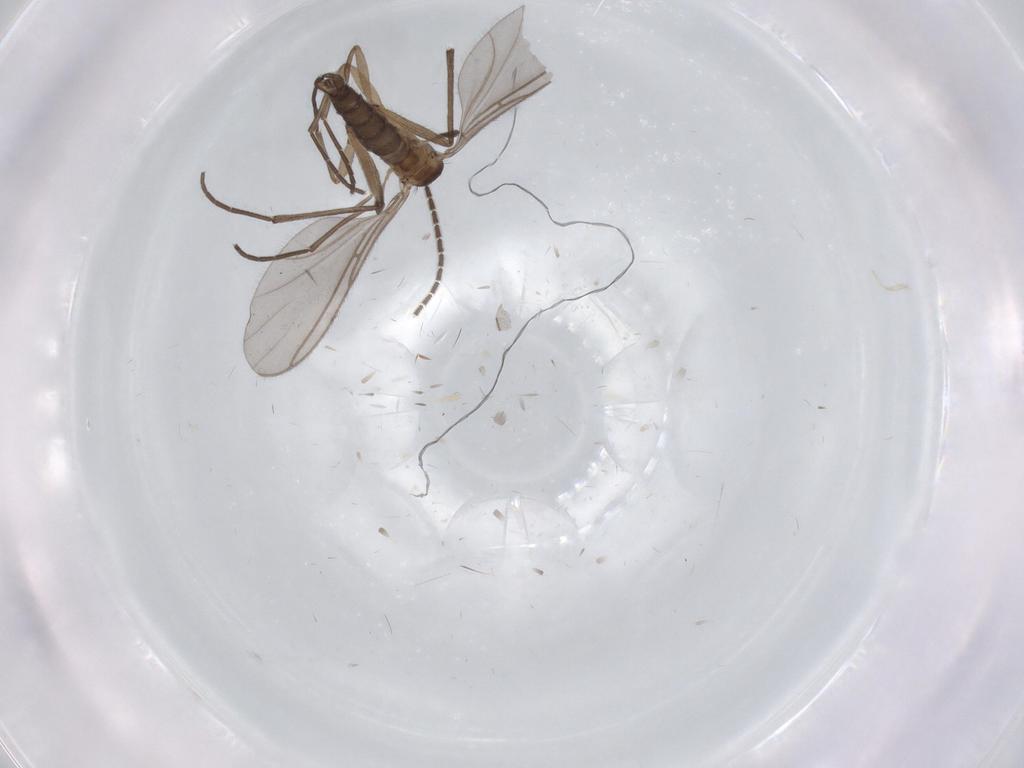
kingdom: Animalia
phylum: Arthropoda
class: Insecta
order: Diptera
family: Sciaridae
